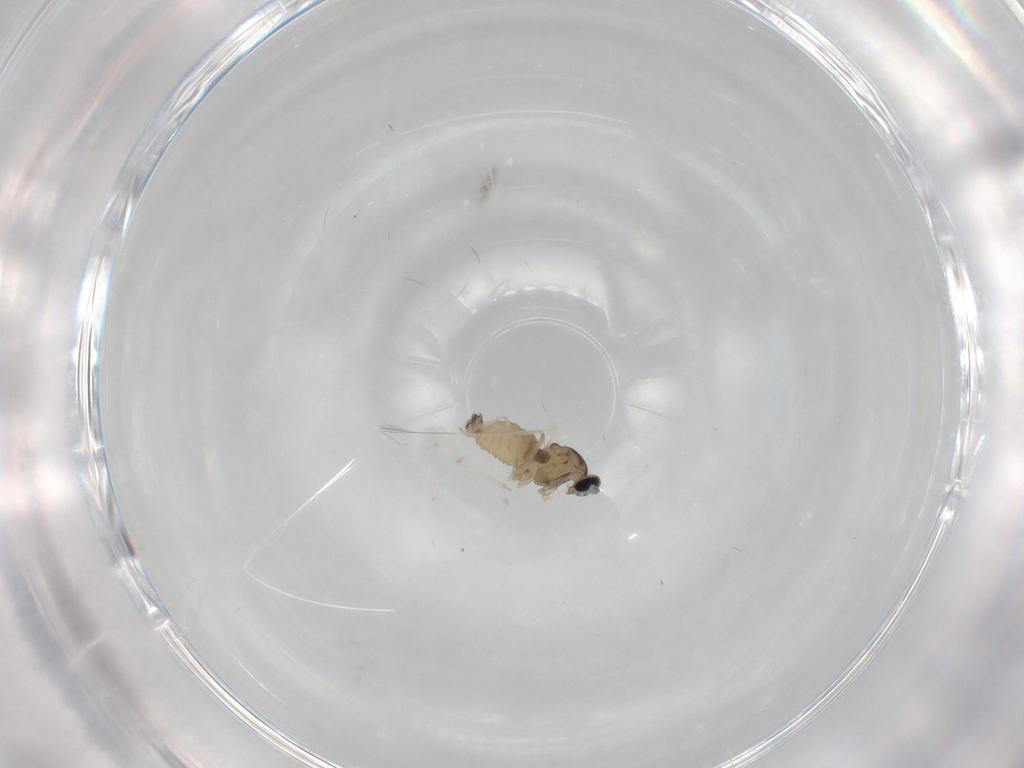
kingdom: Animalia
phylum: Arthropoda
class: Insecta
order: Diptera
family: Cecidomyiidae
